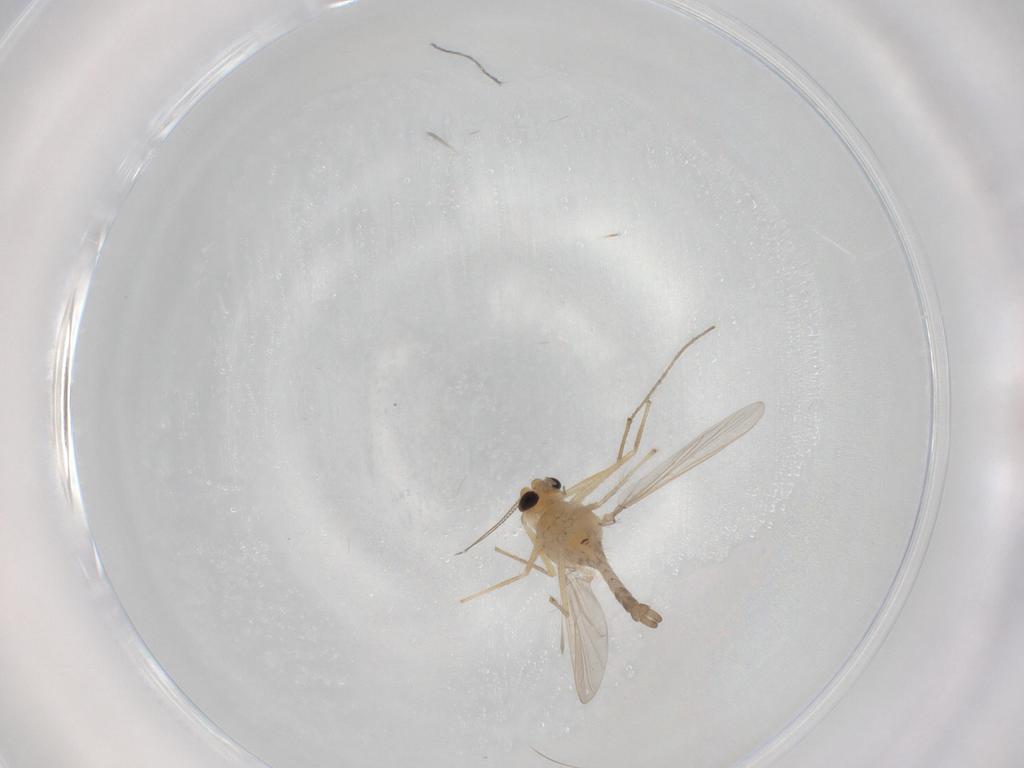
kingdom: Animalia
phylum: Arthropoda
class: Insecta
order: Diptera
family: Chironomidae
